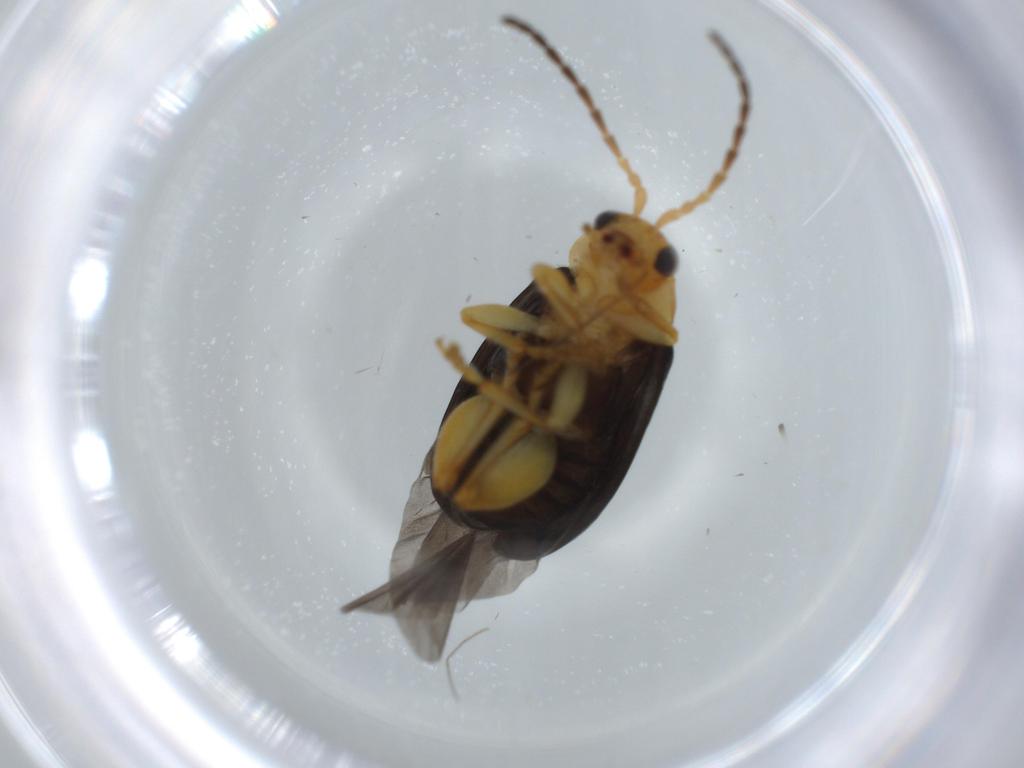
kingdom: Animalia
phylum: Arthropoda
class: Insecta
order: Coleoptera
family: Chrysomelidae
